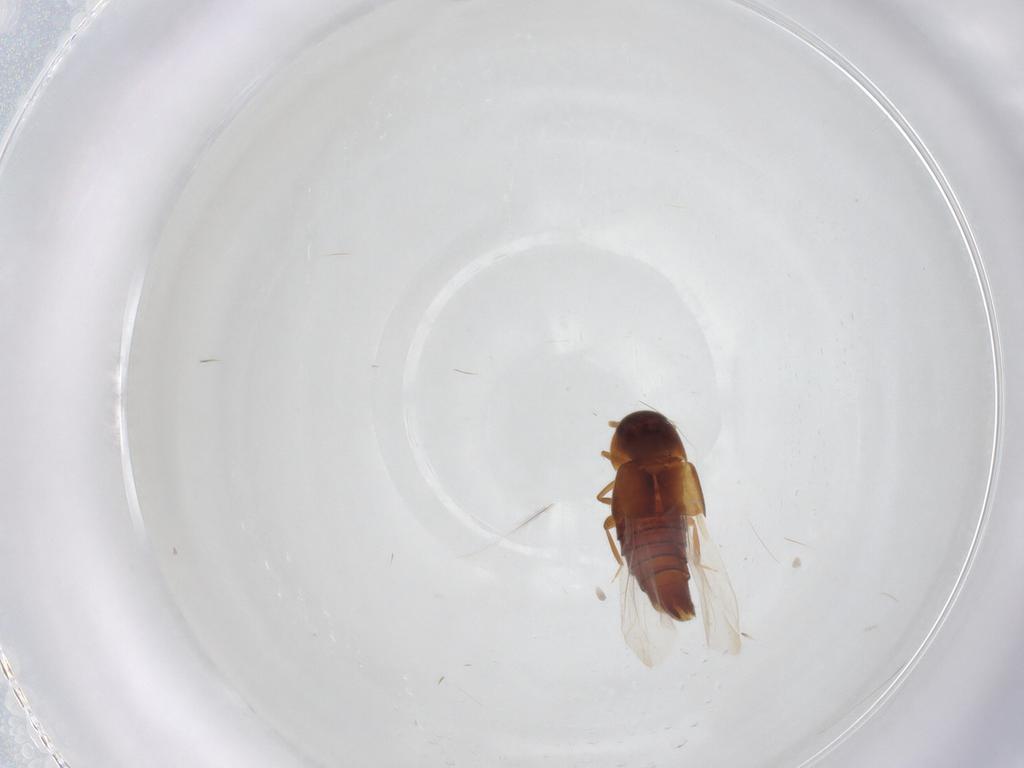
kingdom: Animalia
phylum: Arthropoda
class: Insecta
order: Coleoptera
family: Staphylinidae
